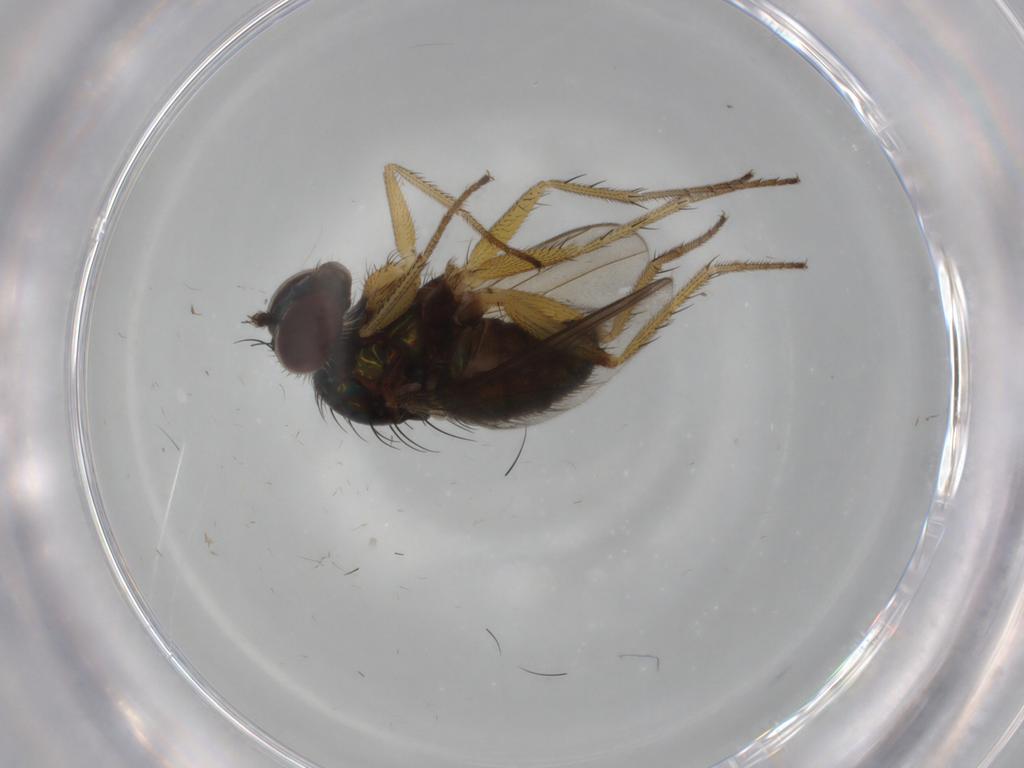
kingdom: Animalia
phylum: Arthropoda
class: Insecta
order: Diptera
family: Dolichopodidae
